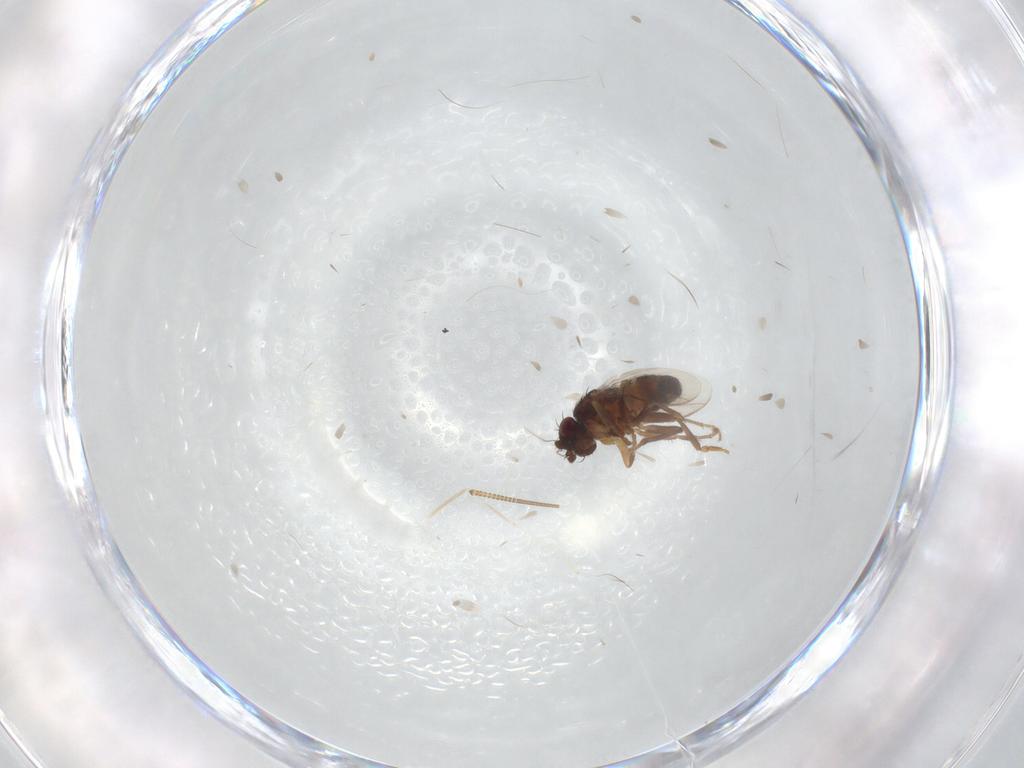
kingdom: Animalia
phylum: Arthropoda
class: Insecta
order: Diptera
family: Sphaeroceridae
